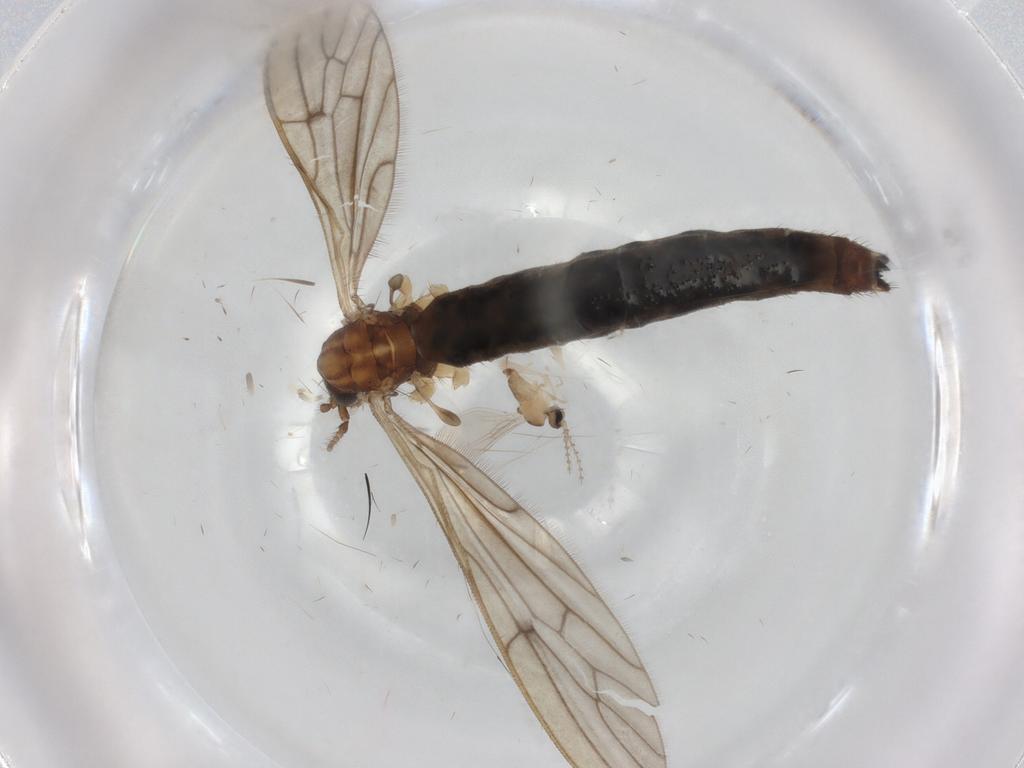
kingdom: Animalia
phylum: Arthropoda
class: Insecta
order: Diptera
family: Limoniidae
